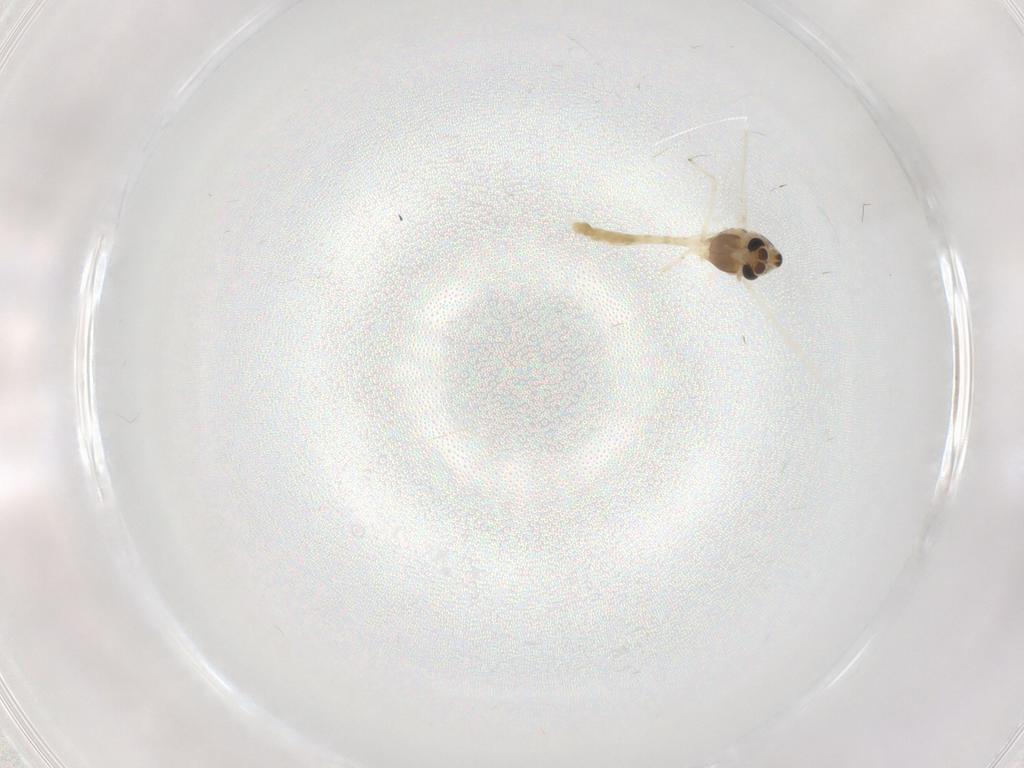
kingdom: Animalia
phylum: Arthropoda
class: Insecta
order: Diptera
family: Chironomidae
